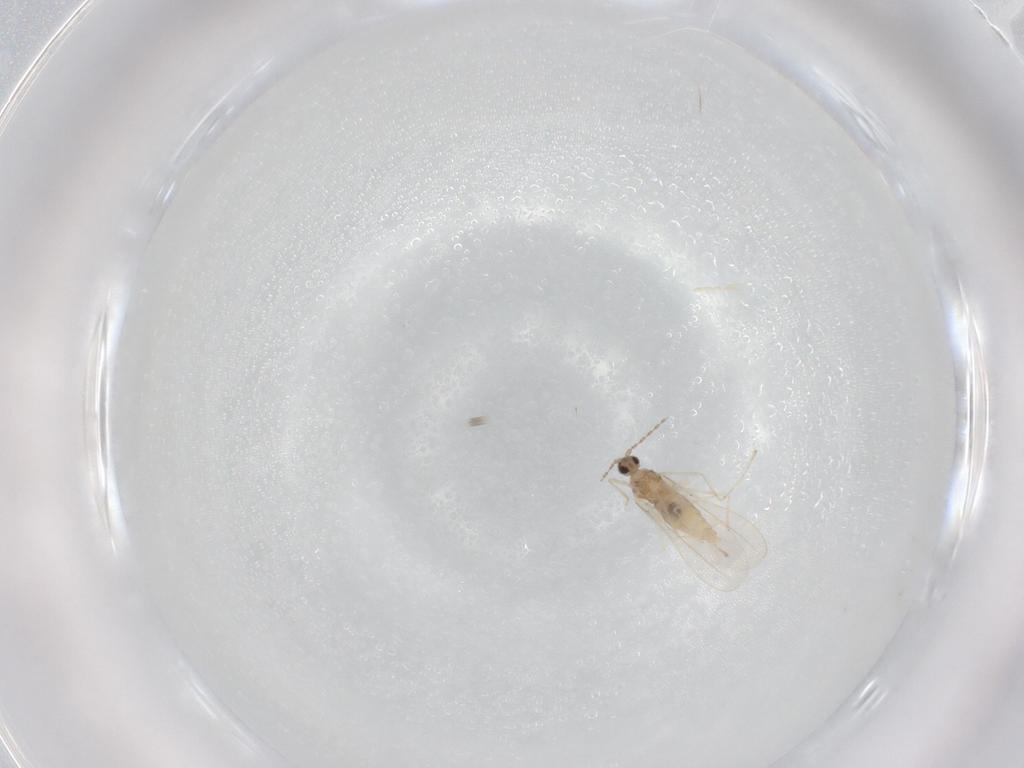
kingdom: Animalia
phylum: Arthropoda
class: Insecta
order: Diptera
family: Cecidomyiidae
